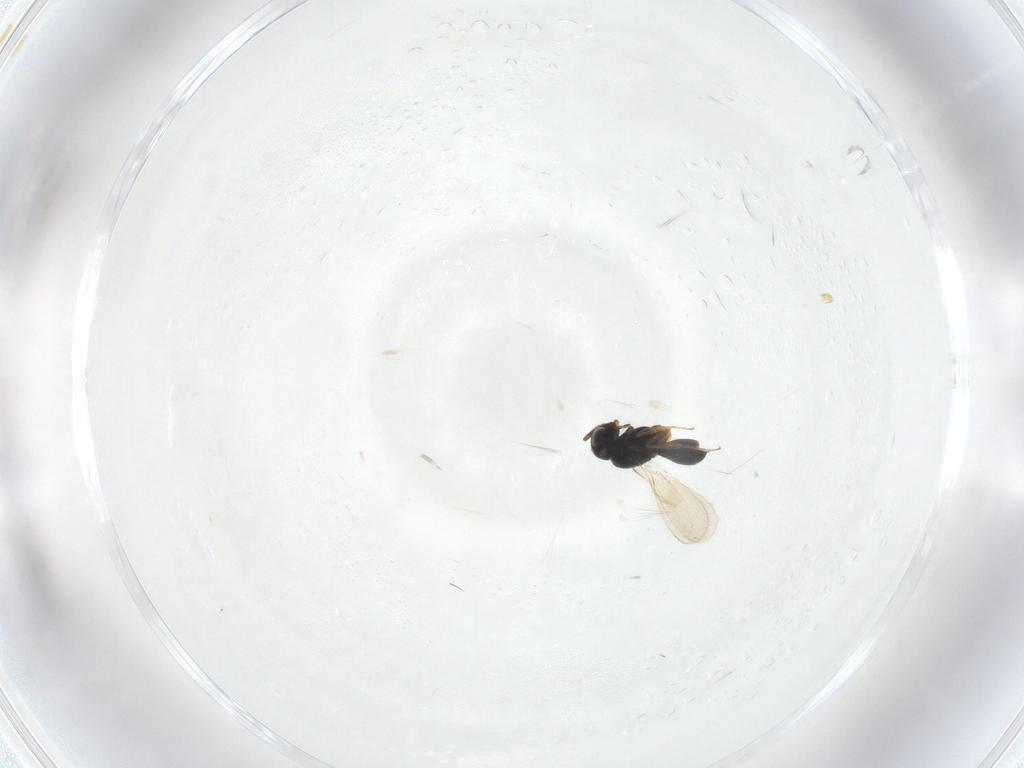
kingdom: Animalia
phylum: Arthropoda
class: Insecta
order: Hymenoptera
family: Scelionidae
